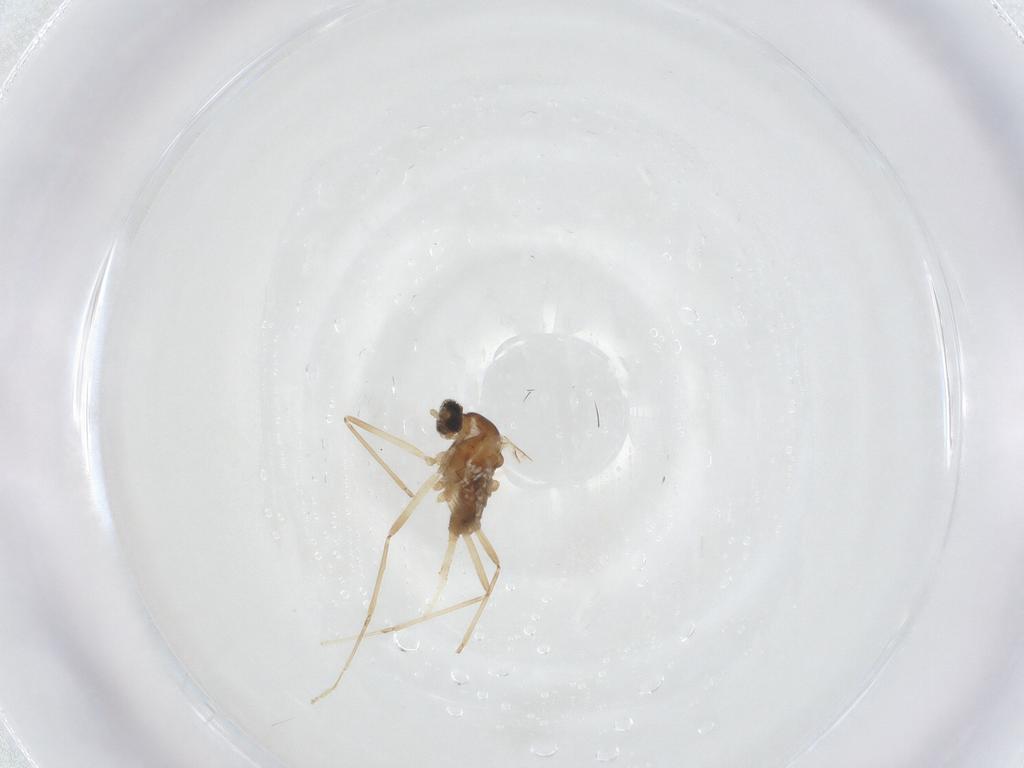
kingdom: Animalia
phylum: Arthropoda
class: Insecta
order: Diptera
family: Cecidomyiidae
